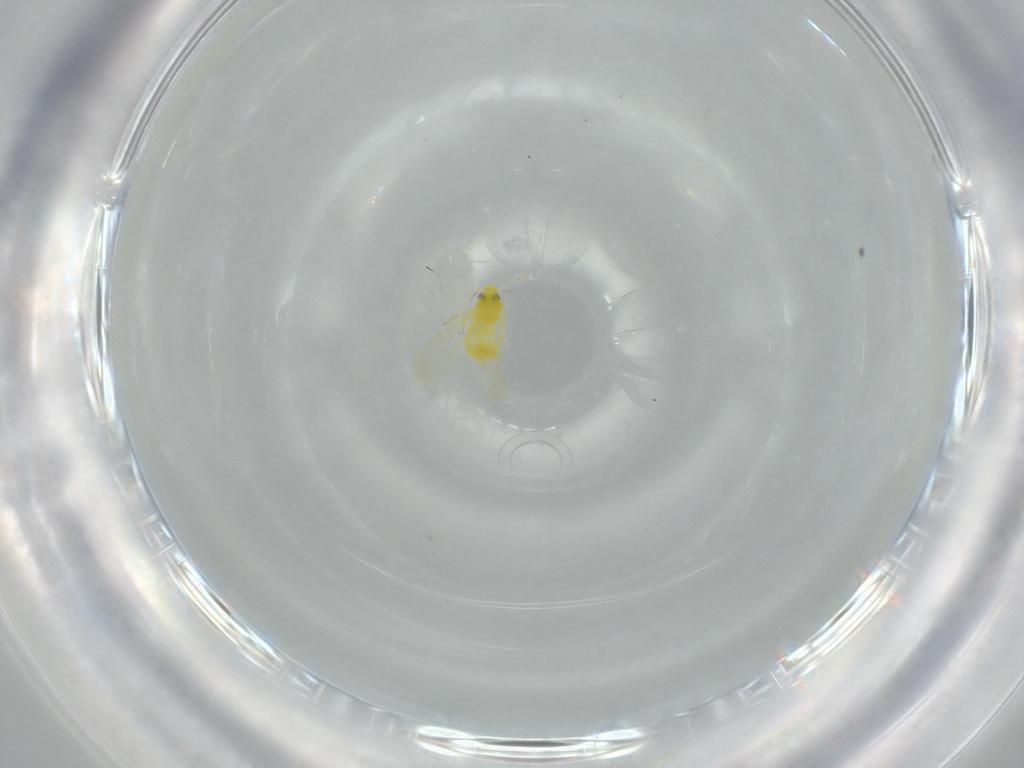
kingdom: Animalia
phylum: Arthropoda
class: Insecta
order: Hemiptera
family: Aleyrodidae
